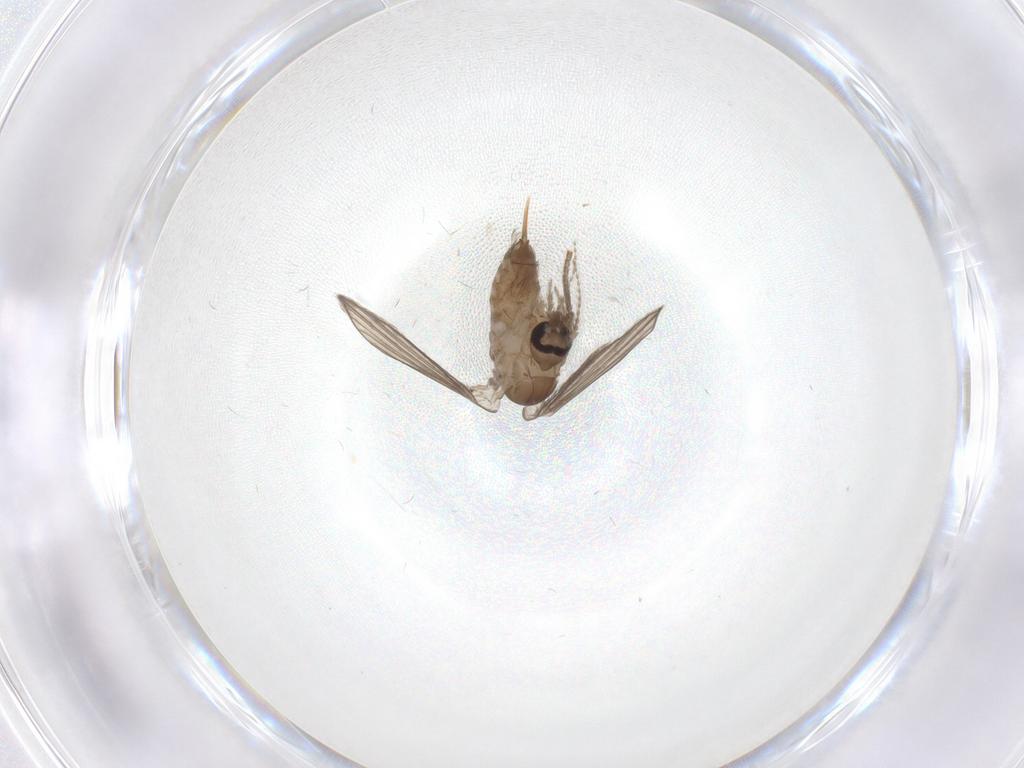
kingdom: Animalia
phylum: Arthropoda
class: Insecta
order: Diptera
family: Psychodidae
